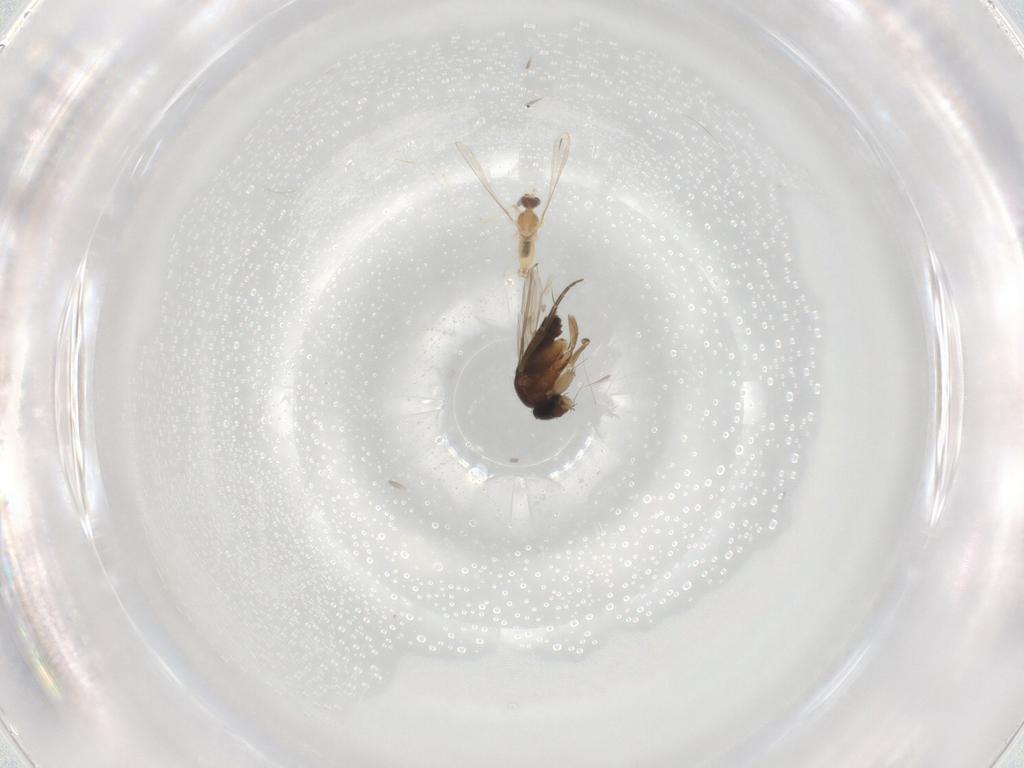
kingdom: Animalia
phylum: Arthropoda
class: Insecta
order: Diptera
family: Cecidomyiidae
